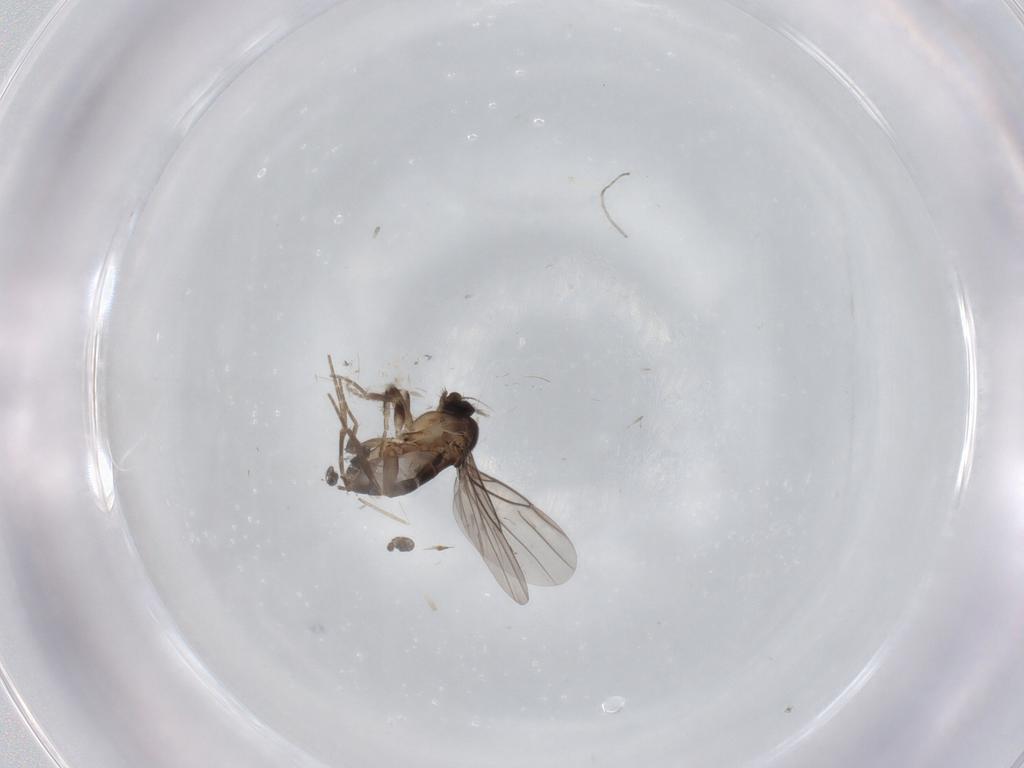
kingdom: Animalia
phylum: Arthropoda
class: Insecta
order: Diptera
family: Sciaridae
